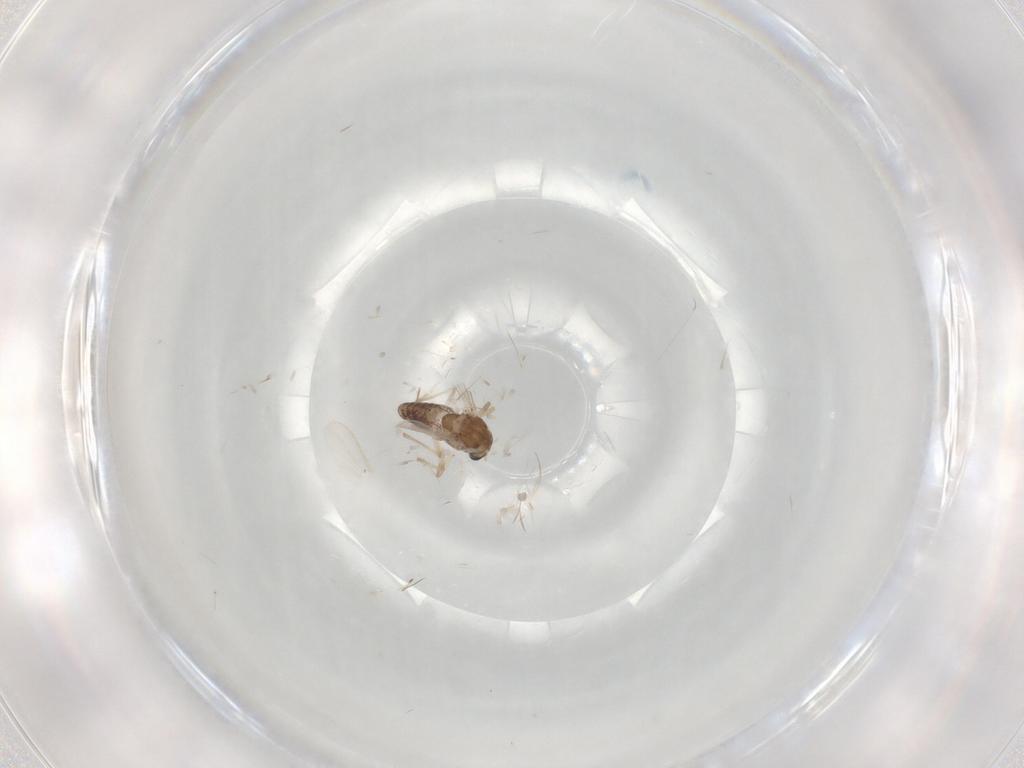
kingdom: Animalia
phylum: Arthropoda
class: Insecta
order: Diptera
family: Chironomidae
